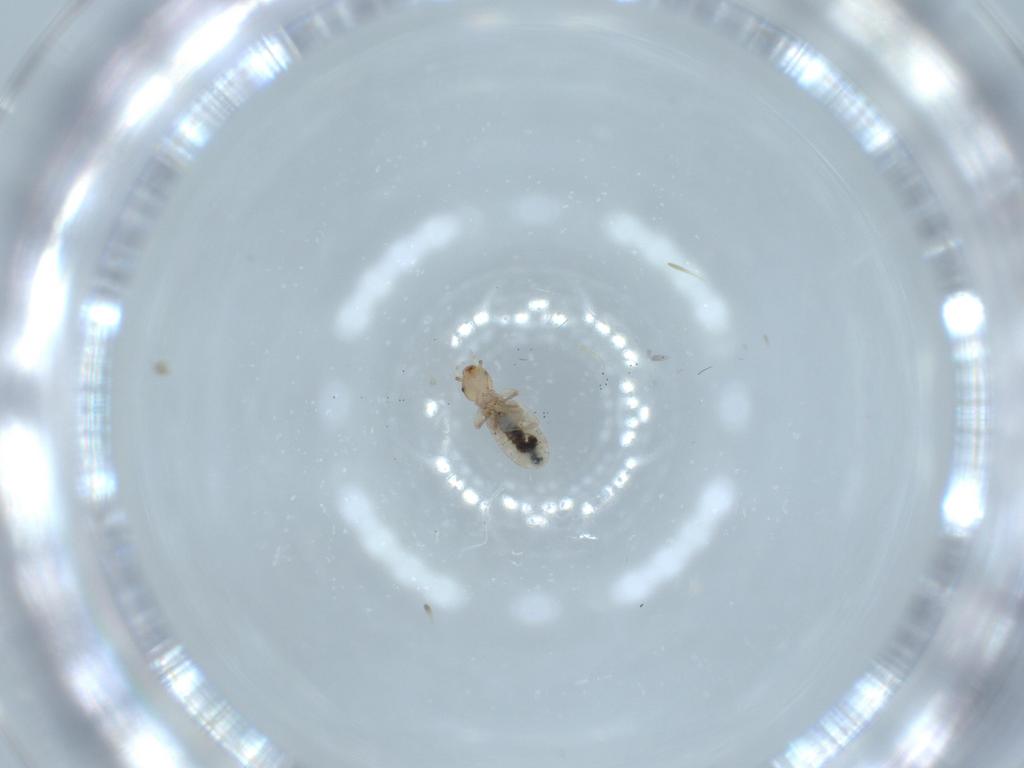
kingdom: Animalia
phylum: Arthropoda
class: Insecta
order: Psocodea
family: Liposcelididae
